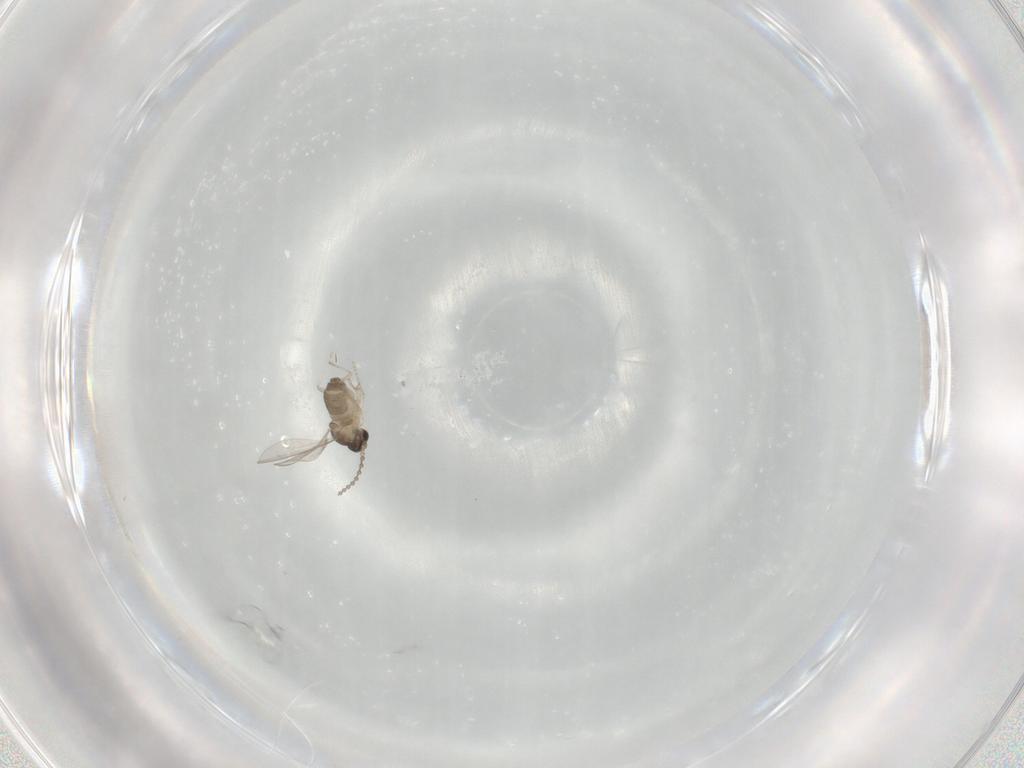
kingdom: Animalia
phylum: Arthropoda
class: Insecta
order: Diptera
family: Cecidomyiidae
